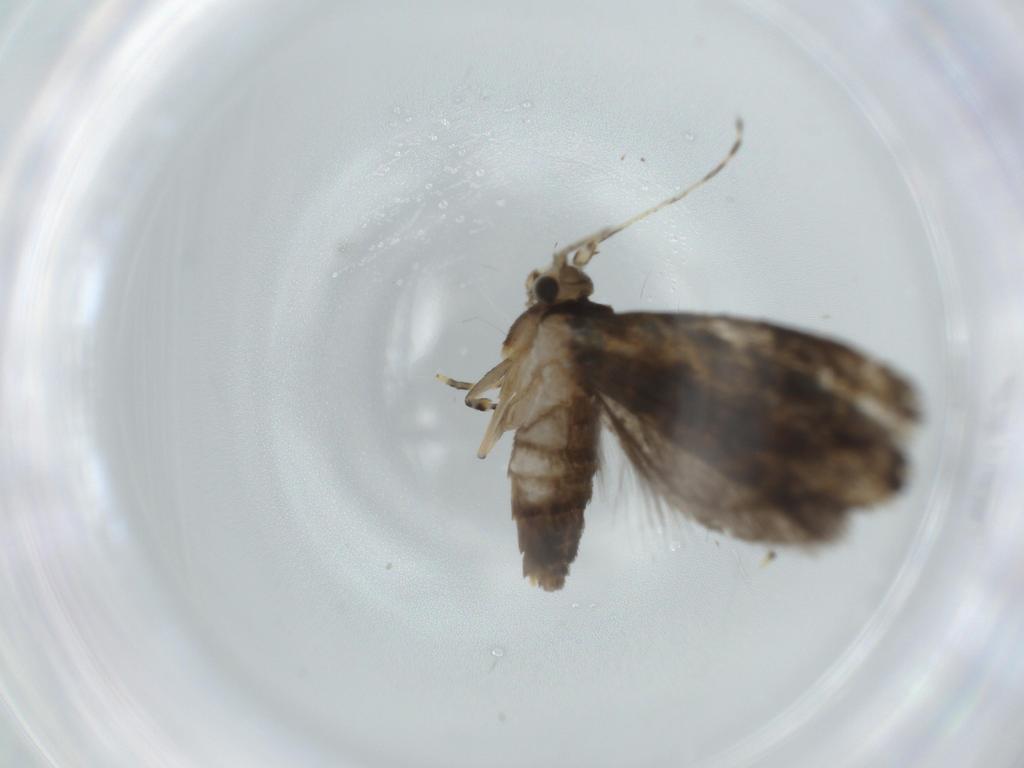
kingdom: Animalia
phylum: Arthropoda
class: Insecta
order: Lepidoptera
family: Tineidae
